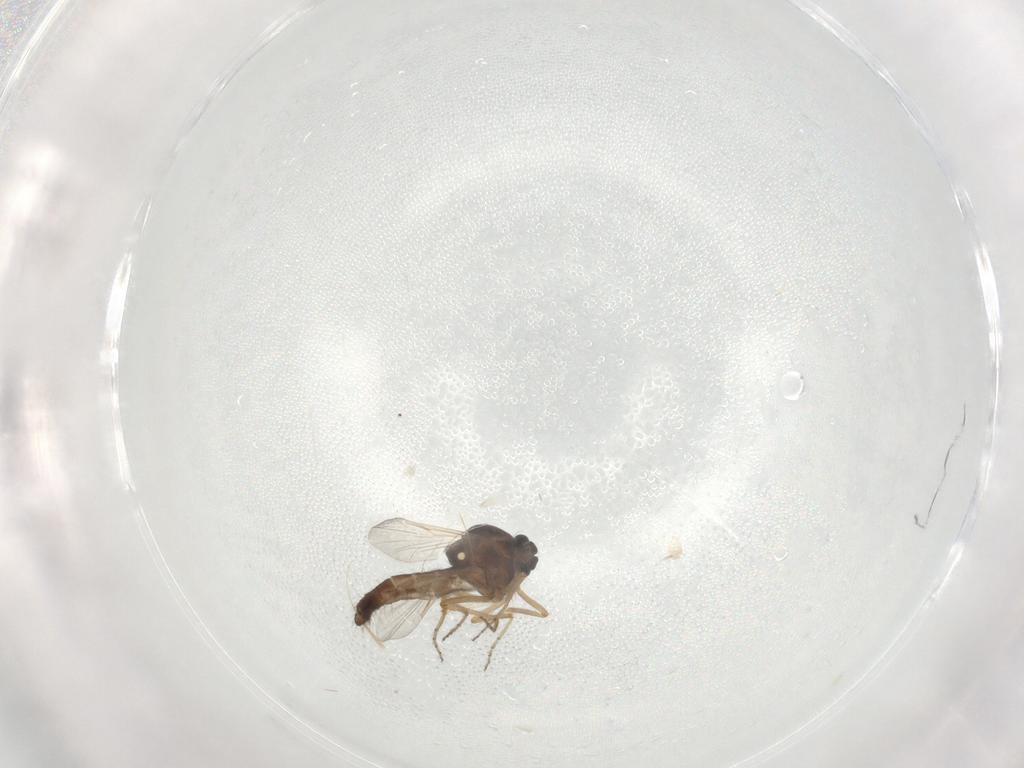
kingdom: Animalia
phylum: Arthropoda
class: Insecta
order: Diptera
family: Ceratopogonidae
